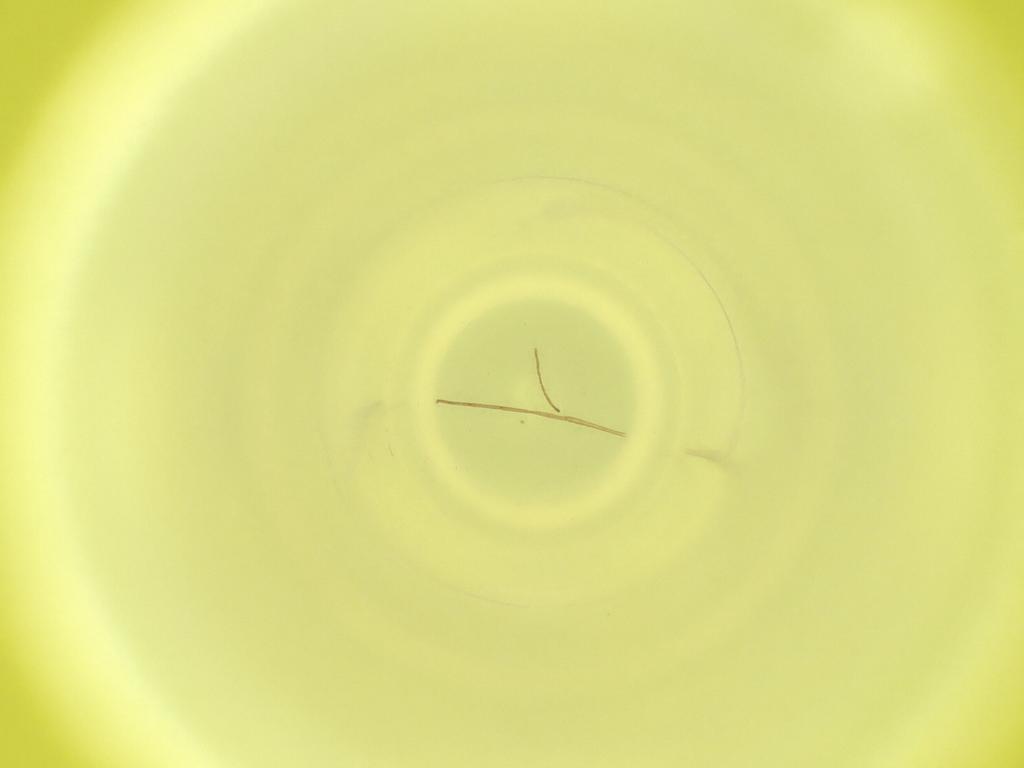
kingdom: Animalia
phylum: Arthropoda
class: Insecta
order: Diptera
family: Cecidomyiidae
